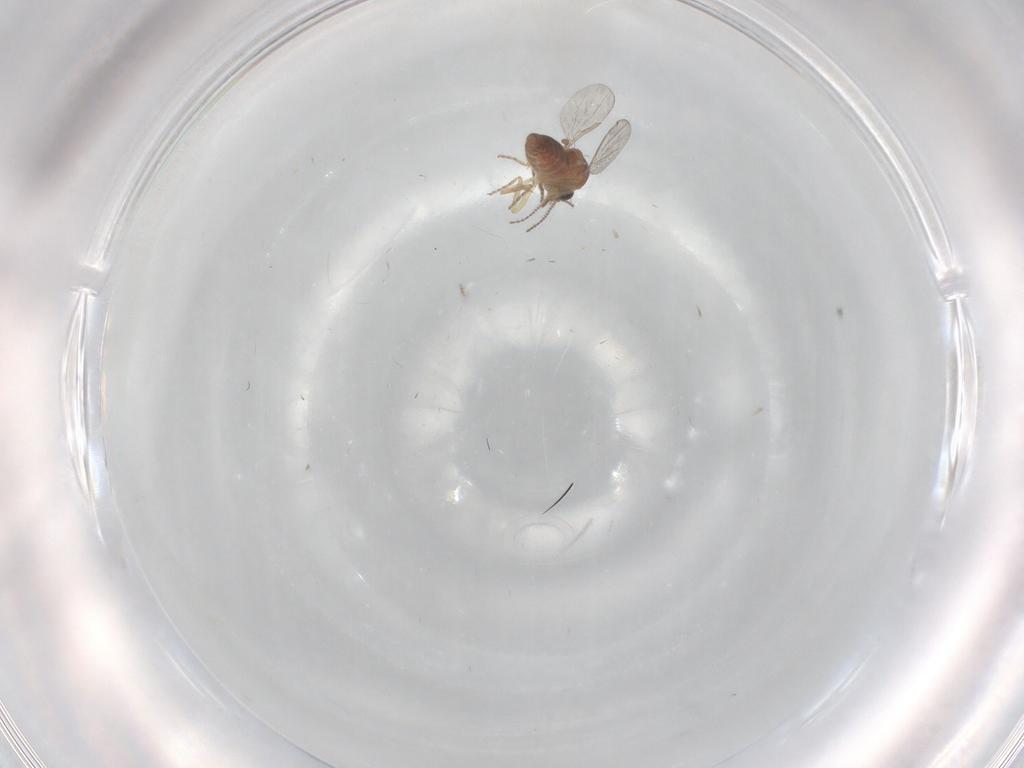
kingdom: Animalia
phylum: Arthropoda
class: Insecta
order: Diptera
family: Ceratopogonidae
